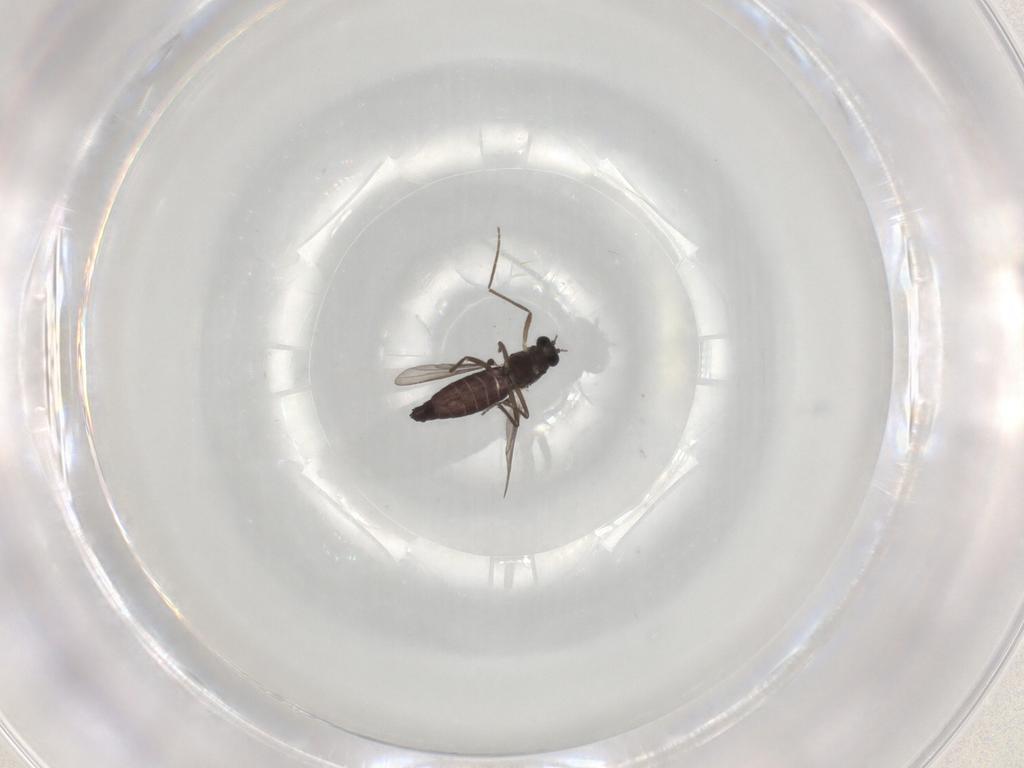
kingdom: Animalia
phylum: Arthropoda
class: Insecta
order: Diptera
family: Chironomidae
